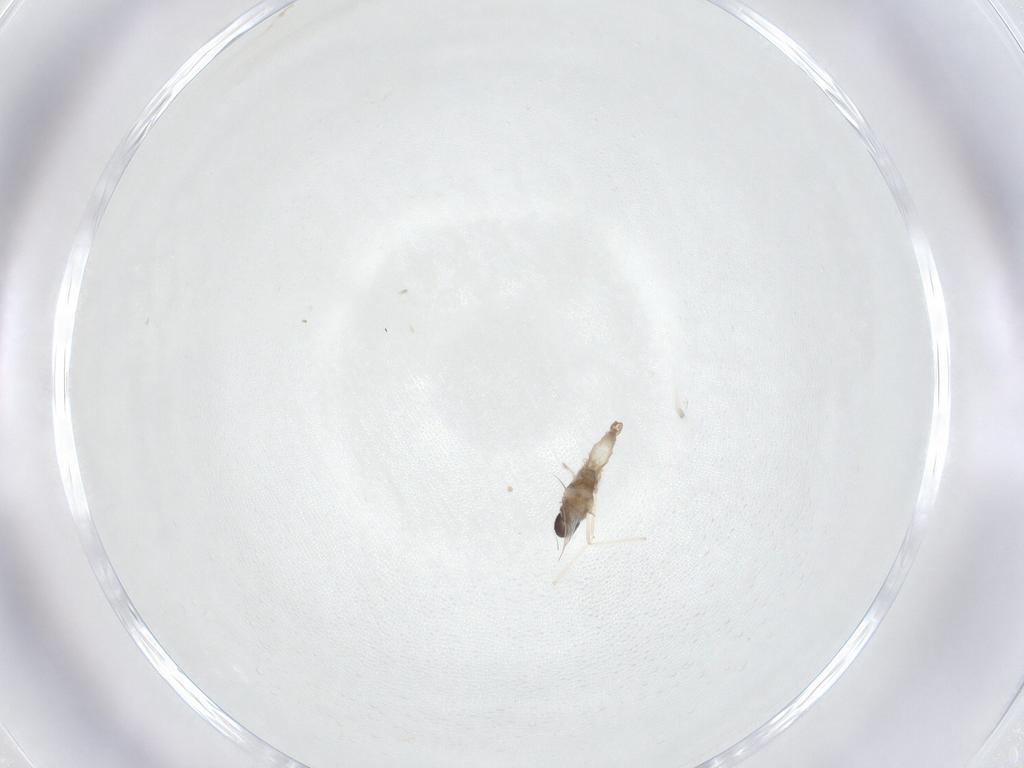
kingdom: Animalia
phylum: Arthropoda
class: Insecta
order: Diptera
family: Cecidomyiidae
